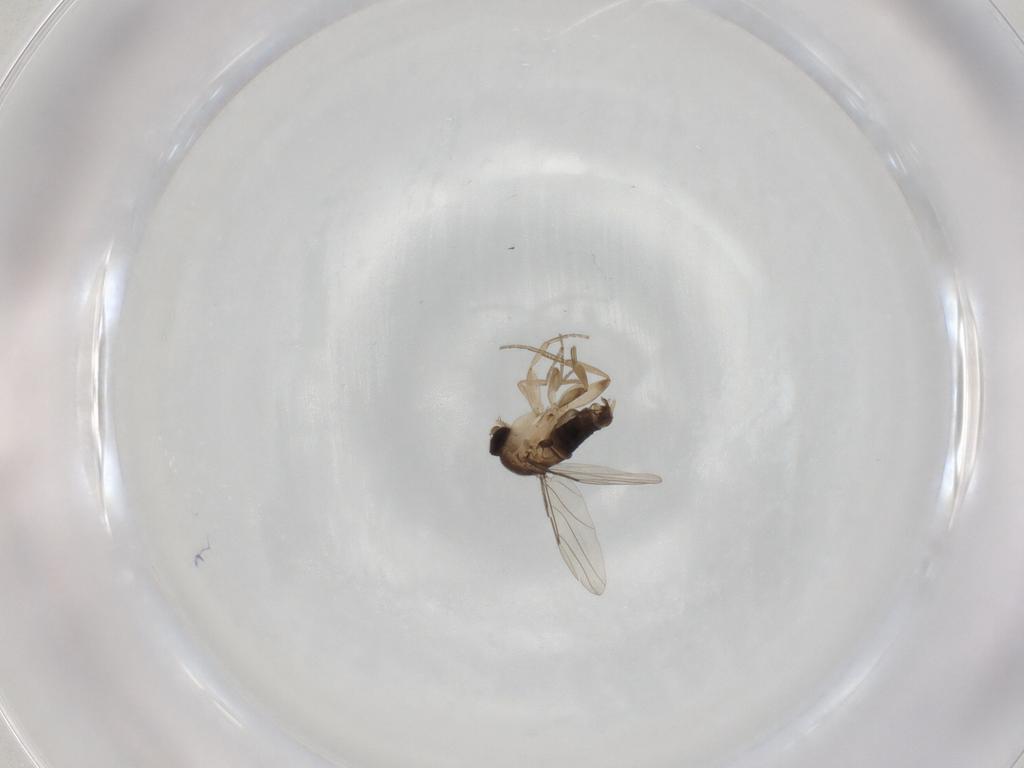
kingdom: Animalia
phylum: Arthropoda
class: Insecta
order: Diptera
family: Phoridae
